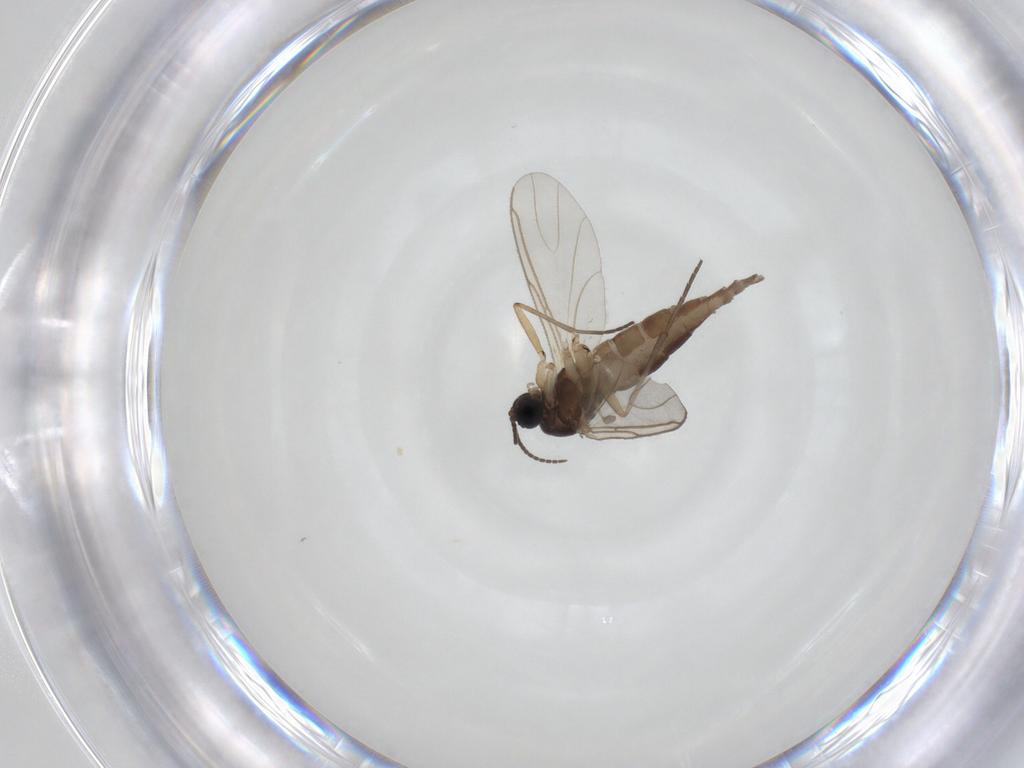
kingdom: Animalia
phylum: Arthropoda
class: Insecta
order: Diptera
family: Sciaridae
